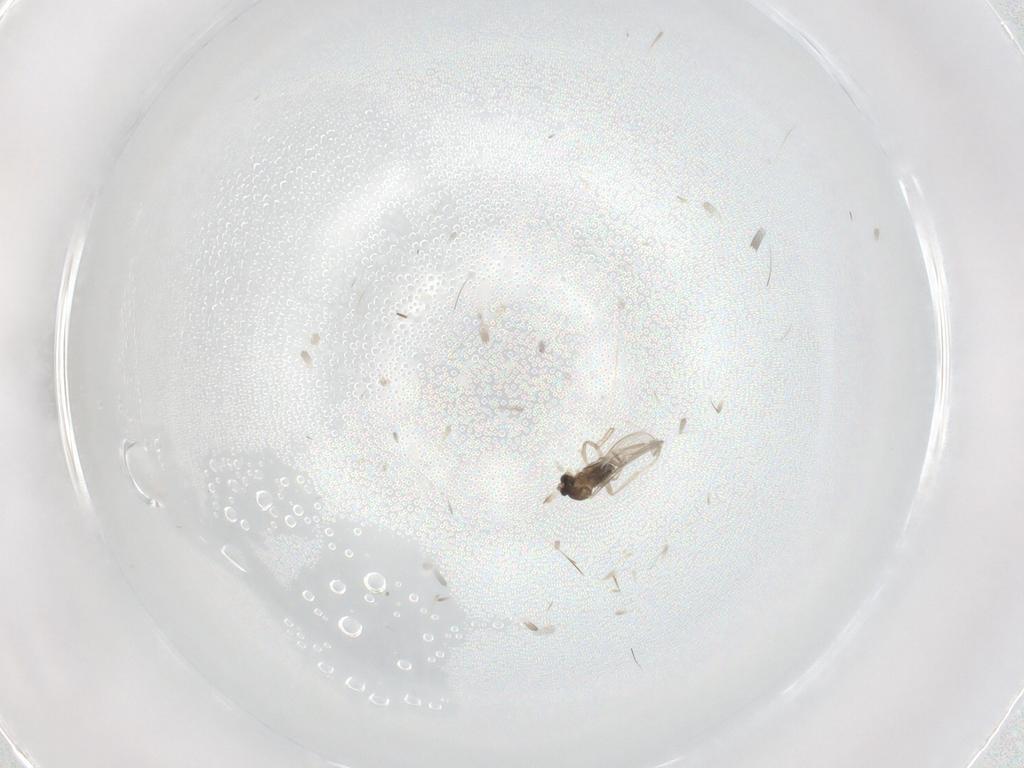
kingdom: Animalia
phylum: Arthropoda
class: Insecta
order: Diptera
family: Cecidomyiidae
